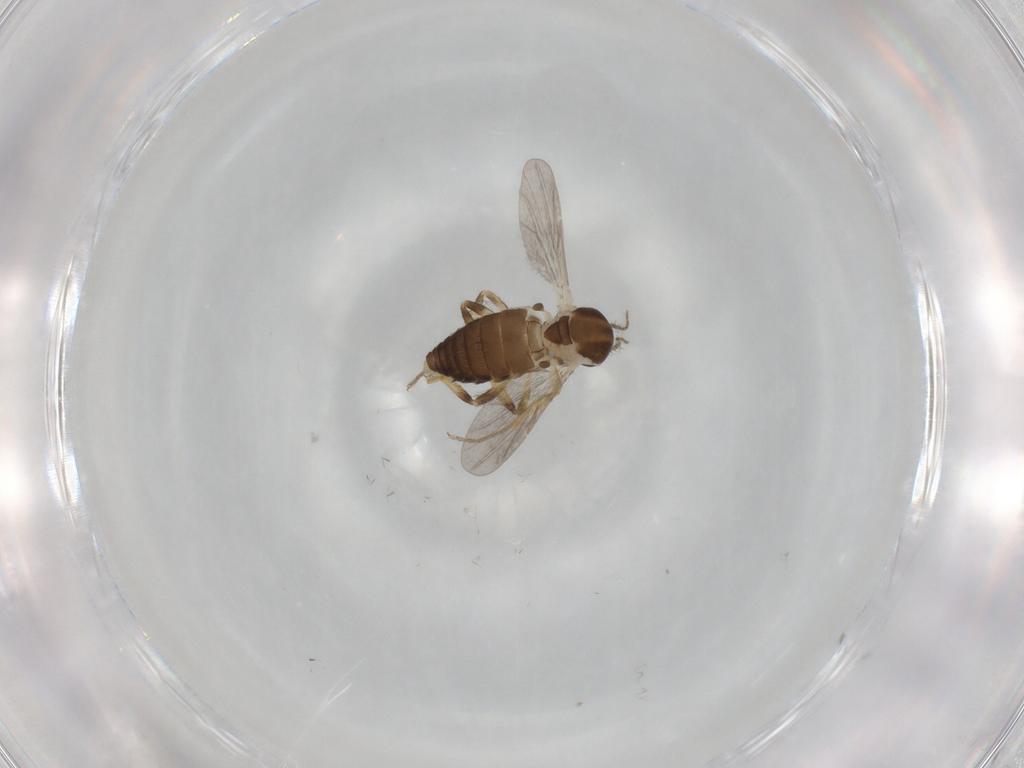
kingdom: Animalia
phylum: Arthropoda
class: Insecta
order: Diptera
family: Ceratopogonidae
